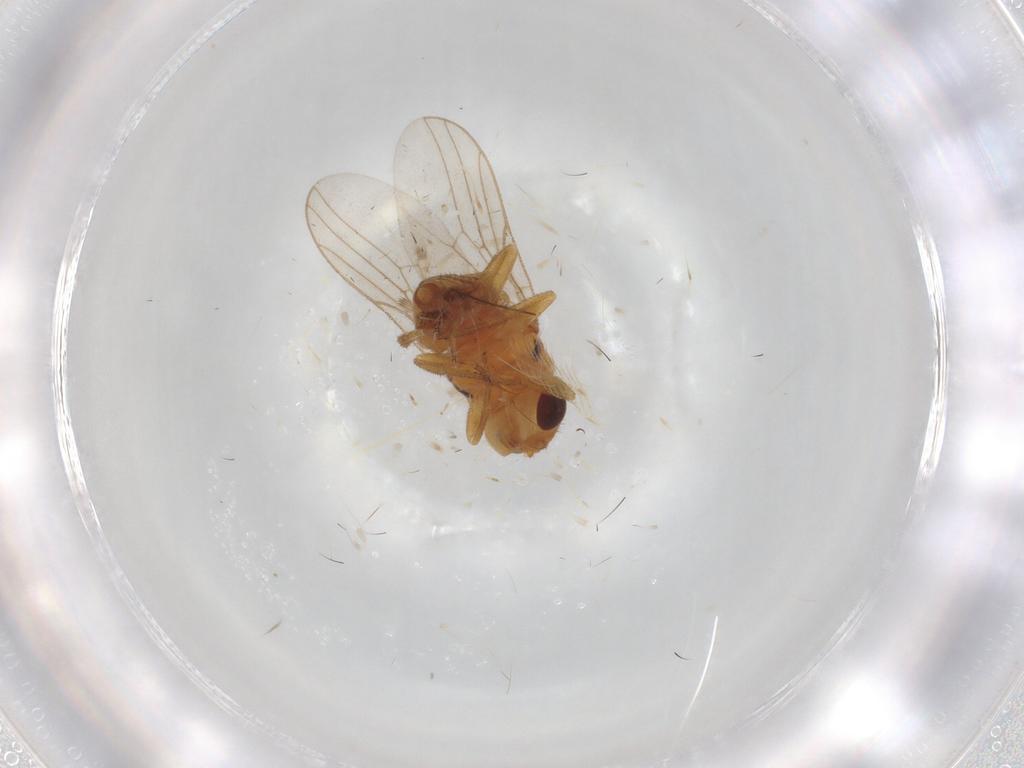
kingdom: Animalia
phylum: Arthropoda
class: Insecta
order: Diptera
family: Chloropidae
